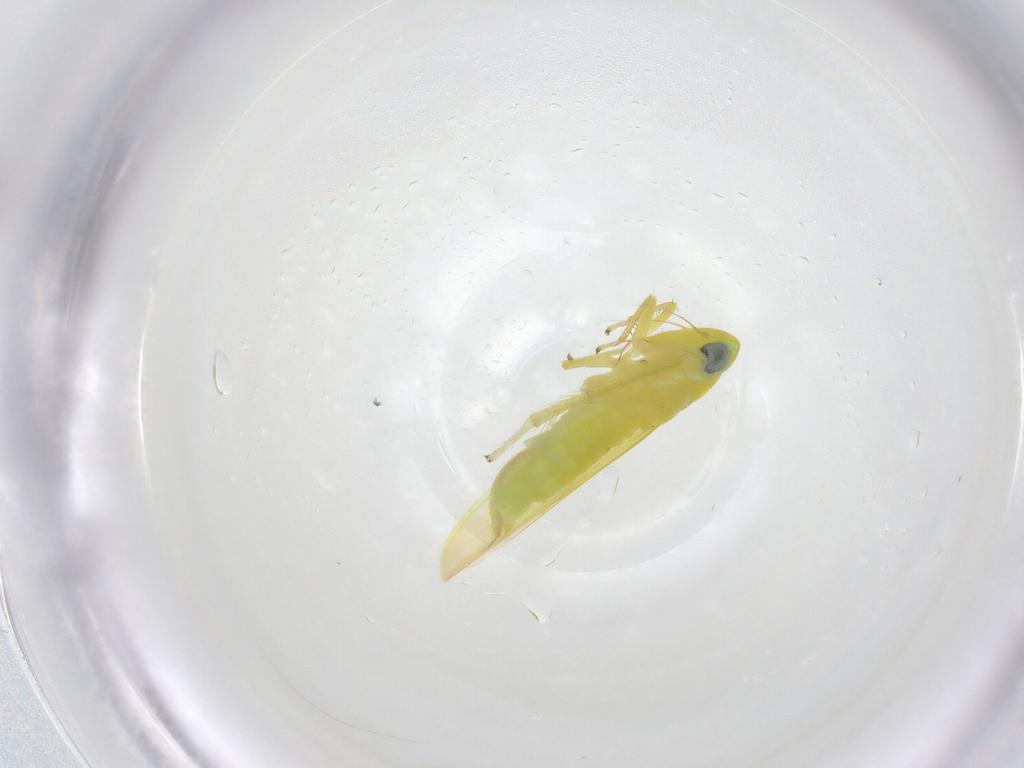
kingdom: Animalia
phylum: Arthropoda
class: Insecta
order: Hemiptera
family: Cicadellidae
